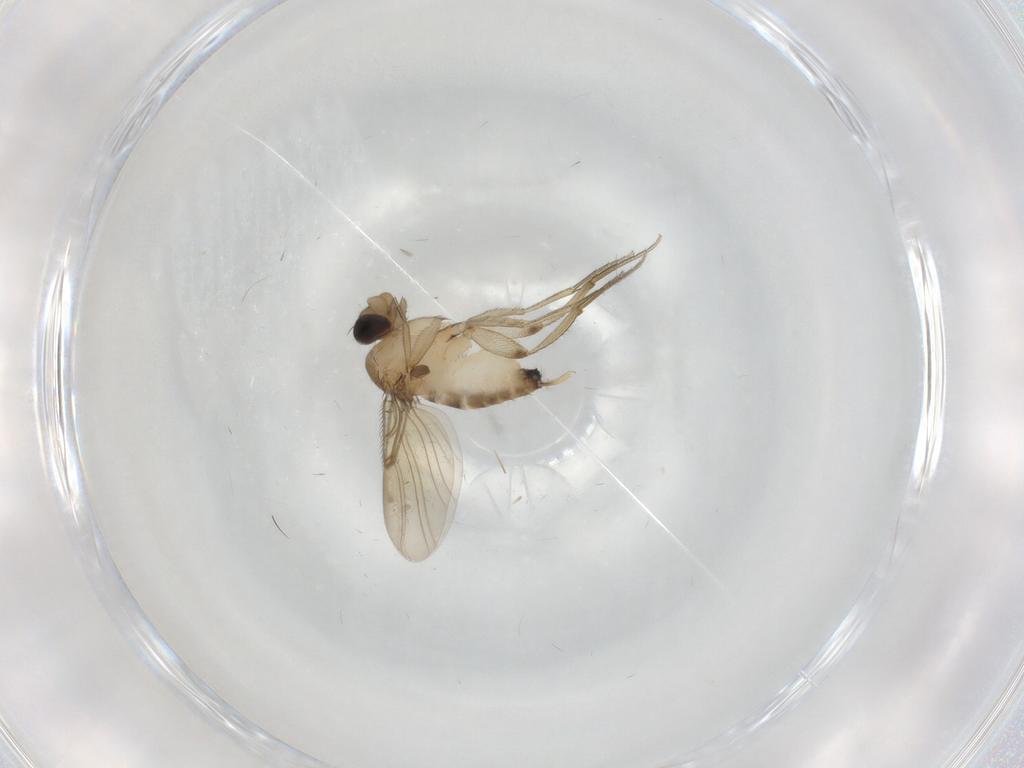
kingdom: Animalia
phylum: Arthropoda
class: Insecta
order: Diptera
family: Phoridae
